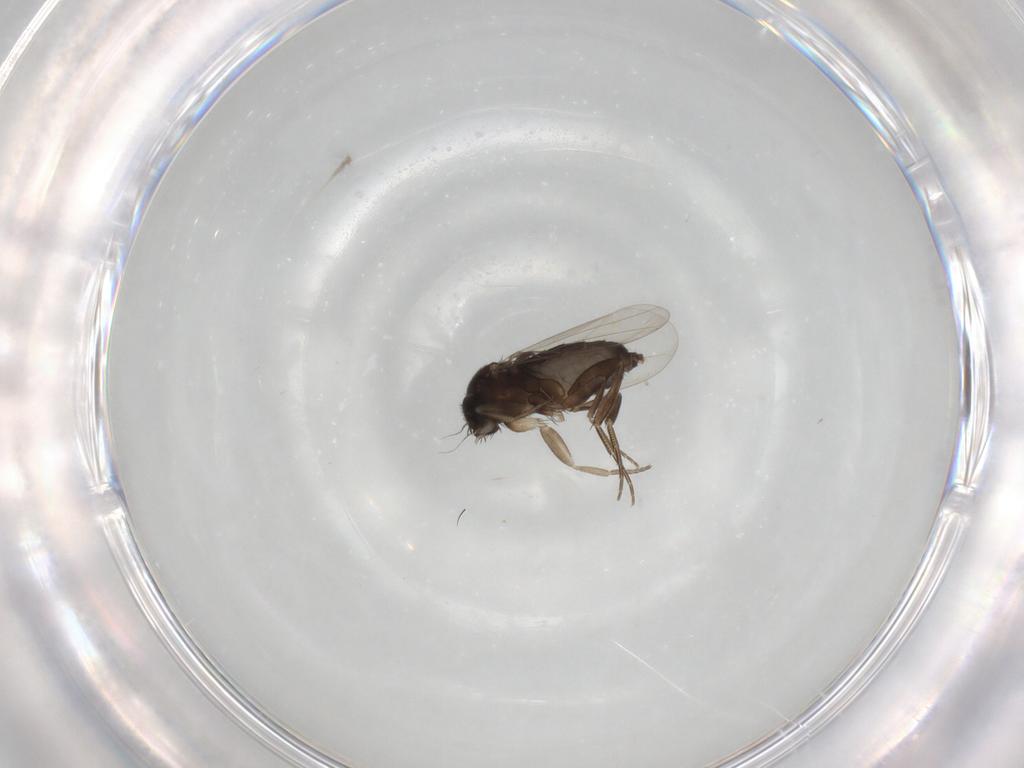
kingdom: Animalia
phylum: Arthropoda
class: Insecta
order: Diptera
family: Phoridae
